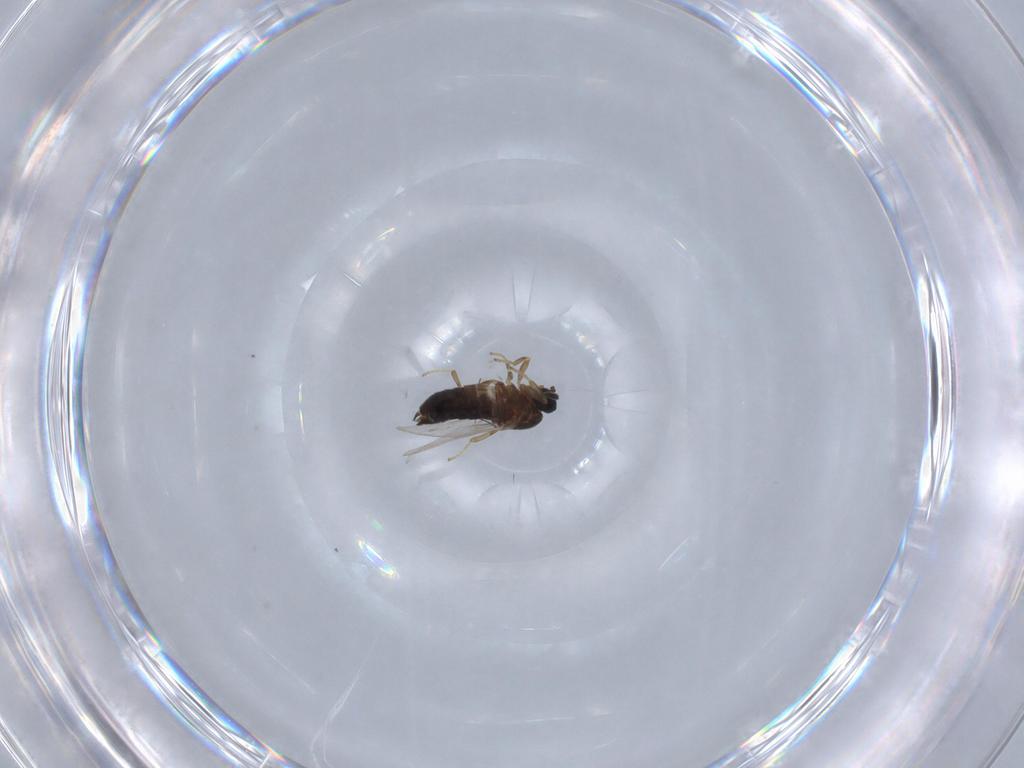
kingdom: Animalia
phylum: Arthropoda
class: Insecta
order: Diptera
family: Scatopsidae
